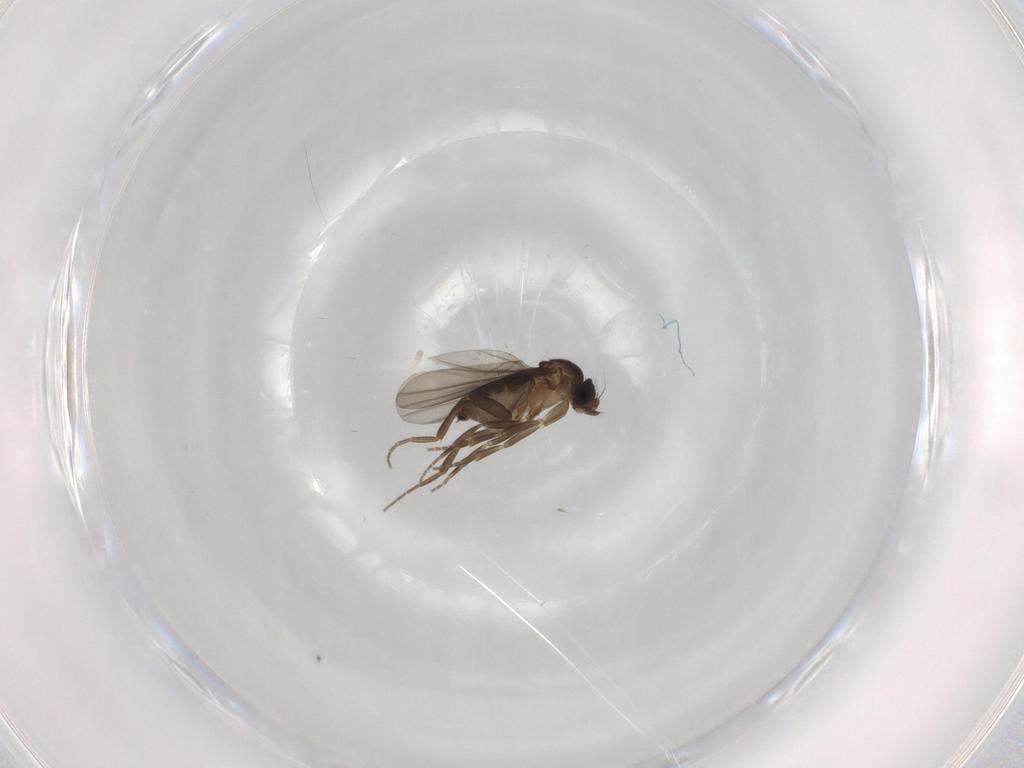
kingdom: Animalia
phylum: Arthropoda
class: Insecta
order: Diptera
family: Phoridae
